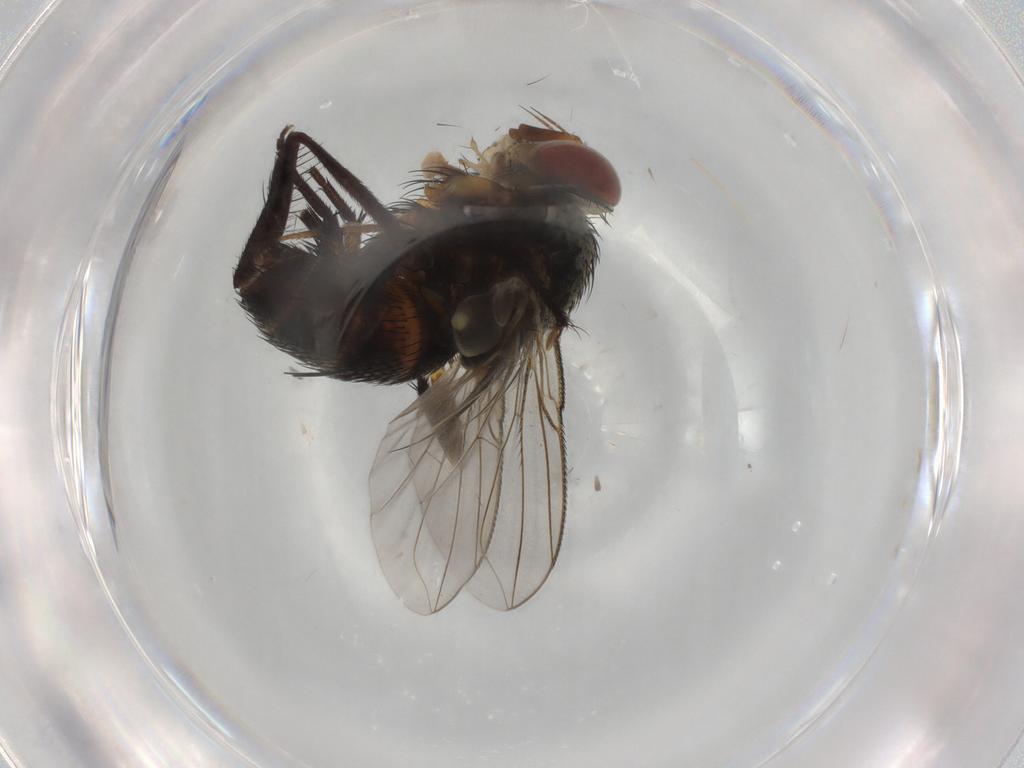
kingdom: Animalia
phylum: Arthropoda
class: Insecta
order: Diptera
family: Muscidae
